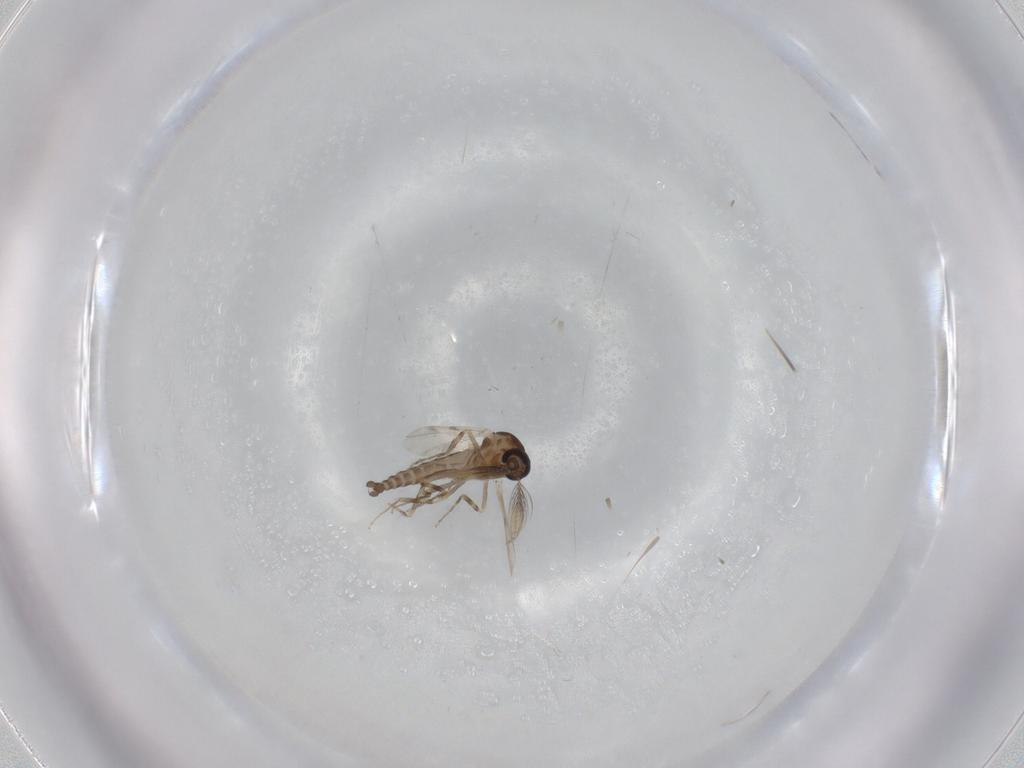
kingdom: Animalia
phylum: Arthropoda
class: Insecta
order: Diptera
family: Ceratopogonidae
